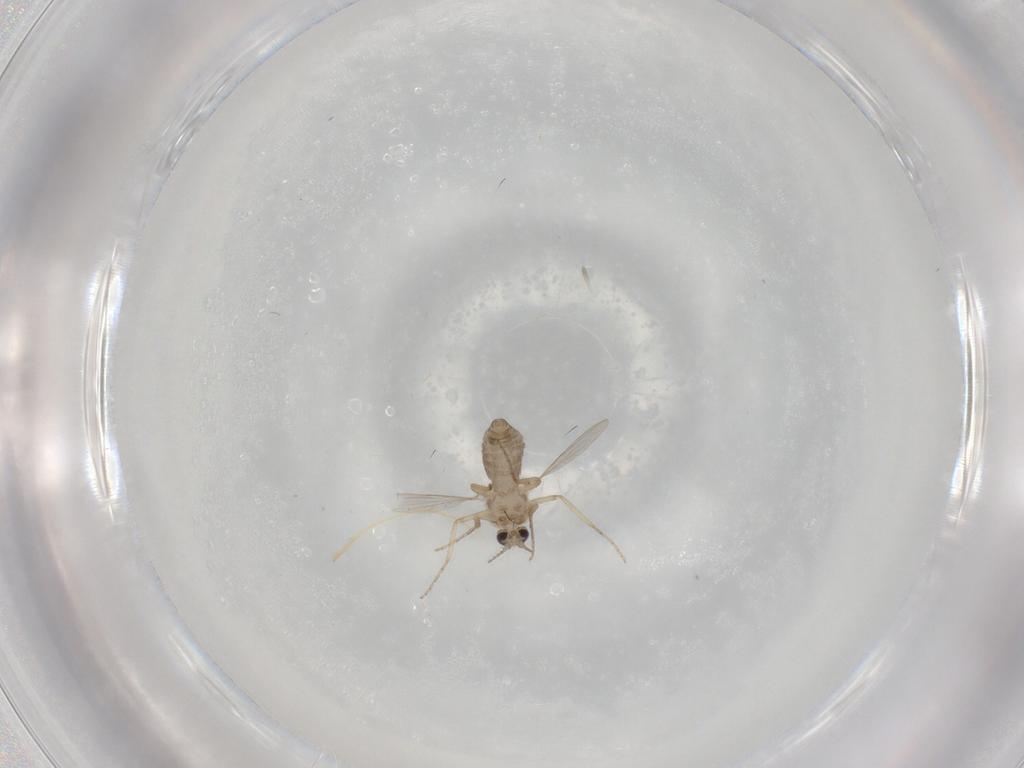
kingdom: Animalia
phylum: Arthropoda
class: Insecta
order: Diptera
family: Ceratopogonidae
